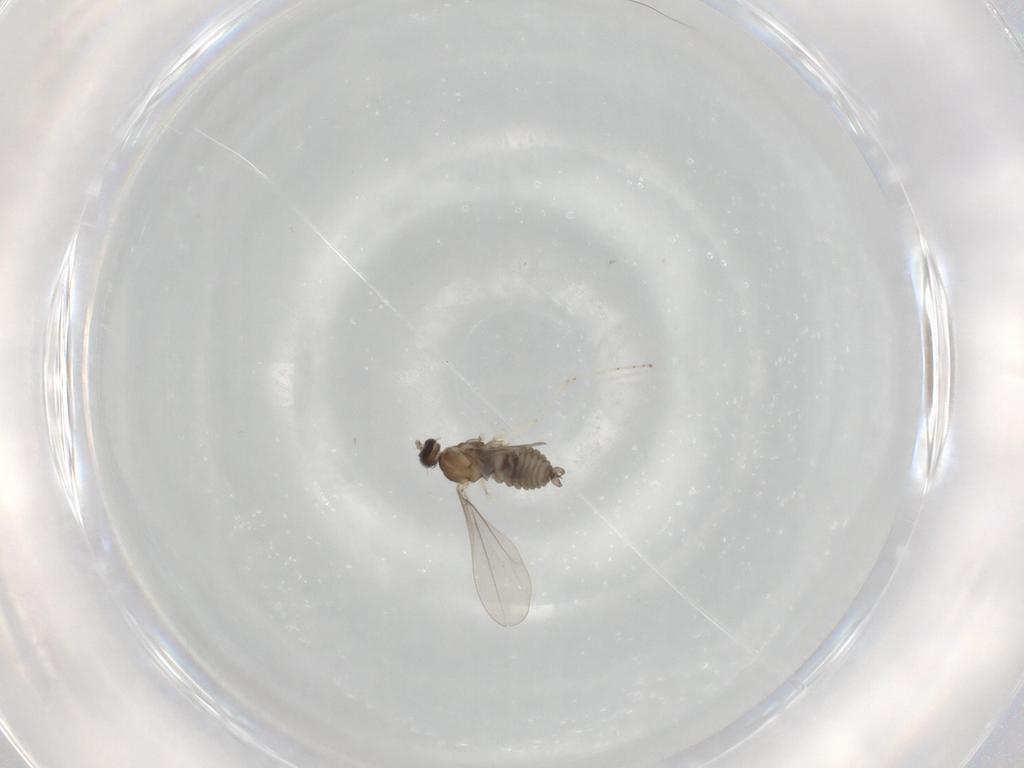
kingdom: Animalia
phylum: Arthropoda
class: Insecta
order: Diptera
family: Phoridae
